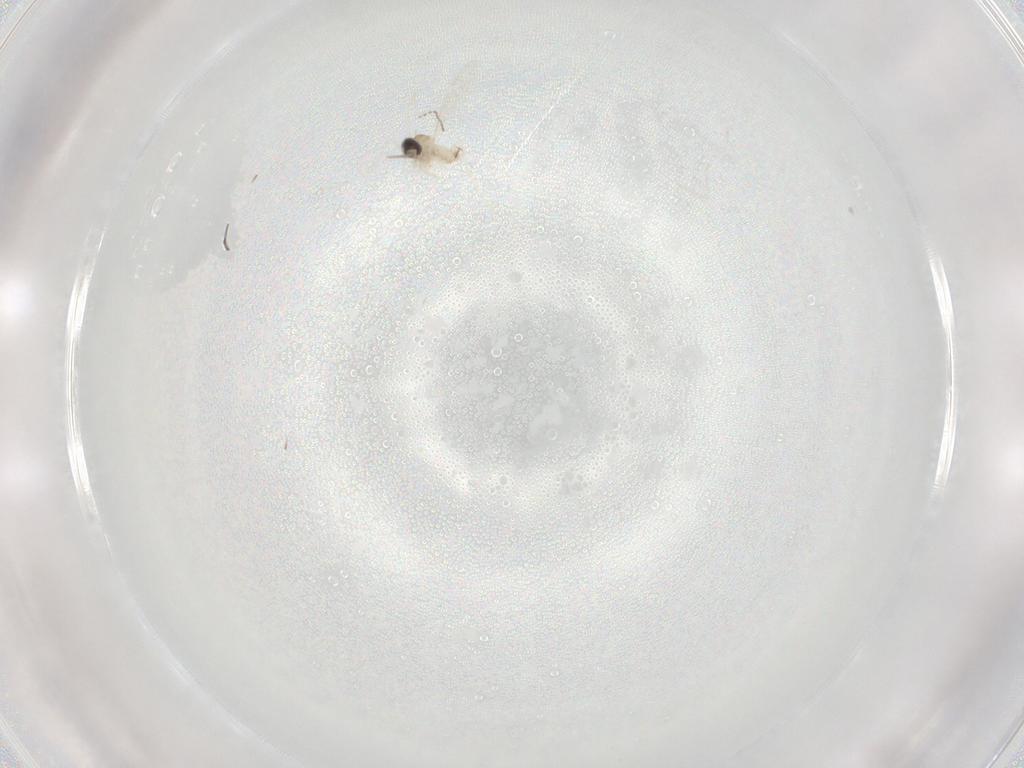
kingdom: Animalia
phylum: Arthropoda
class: Insecta
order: Diptera
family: Cecidomyiidae
